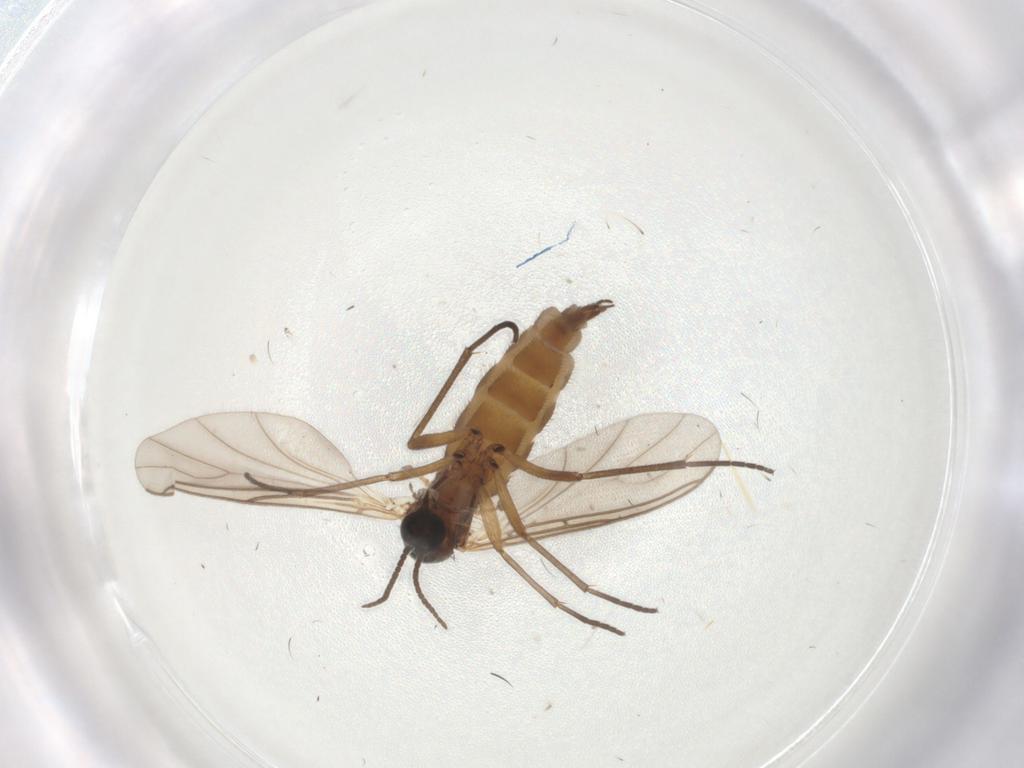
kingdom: Animalia
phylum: Arthropoda
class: Insecta
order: Diptera
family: Sciaridae
